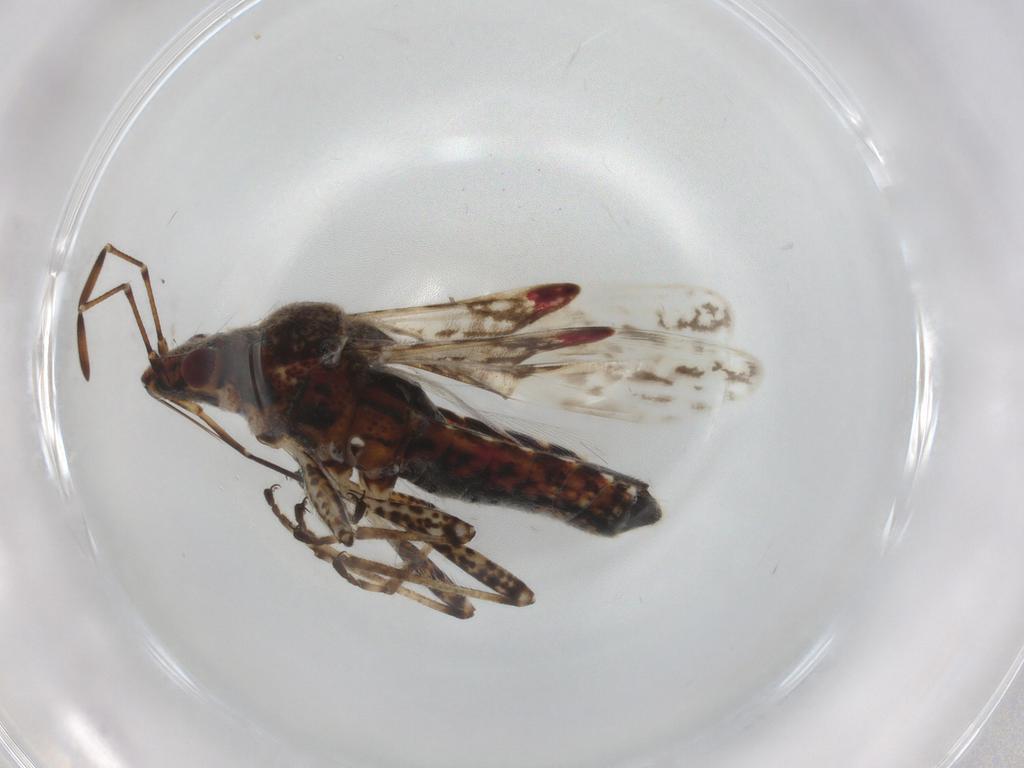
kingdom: Animalia
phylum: Arthropoda
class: Insecta
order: Hemiptera
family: Lygaeidae
